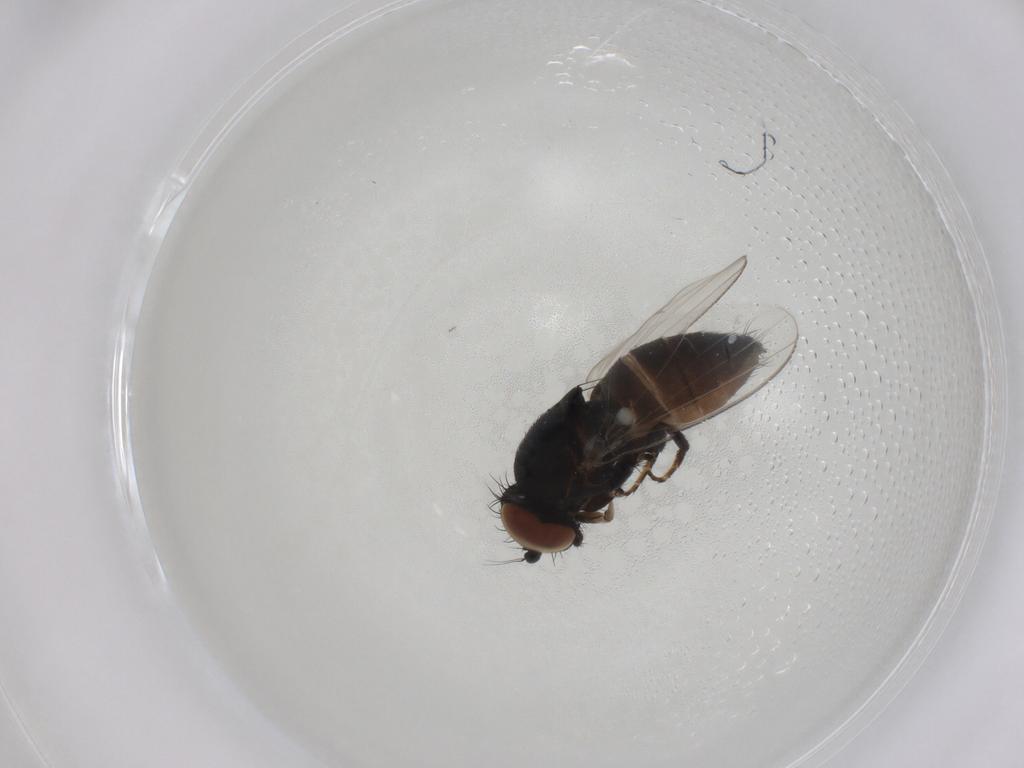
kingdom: Animalia
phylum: Arthropoda
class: Insecta
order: Diptera
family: Milichiidae
